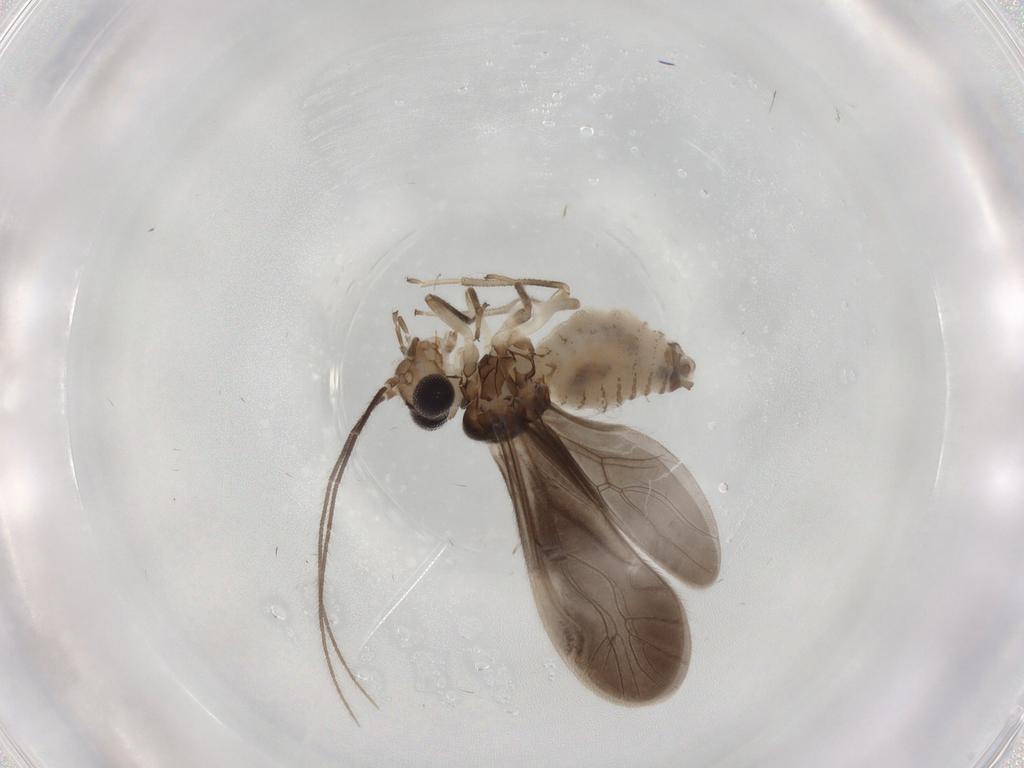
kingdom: Animalia
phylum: Arthropoda
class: Insecta
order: Psocodea
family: Caeciliusidae
